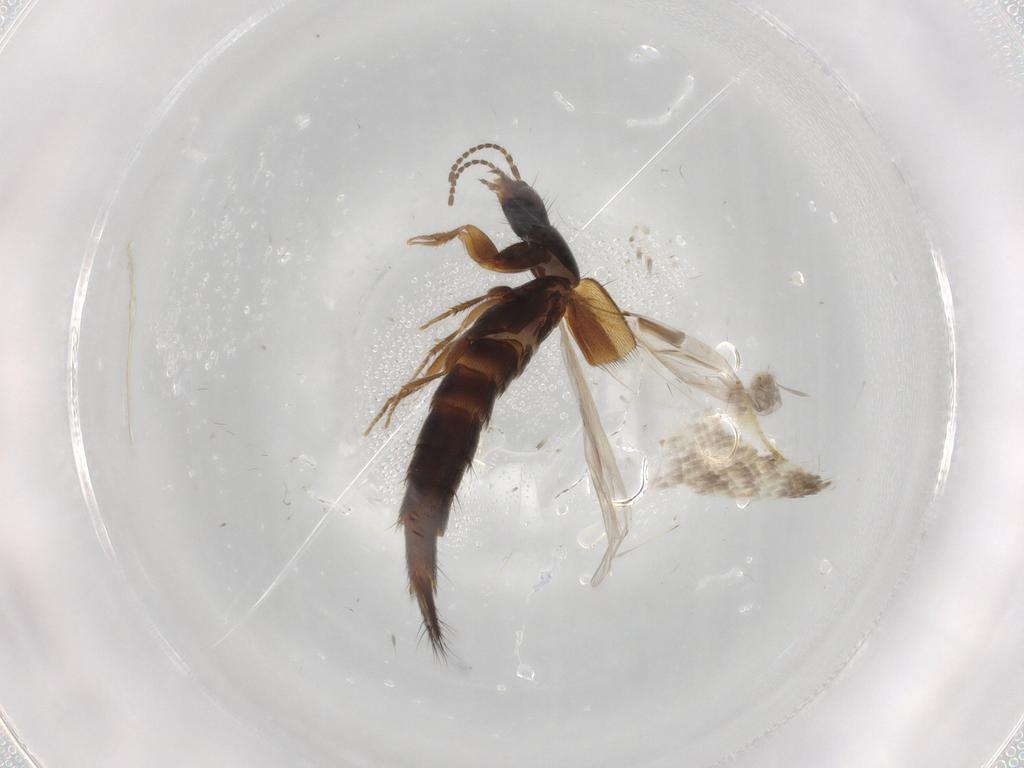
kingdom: Animalia
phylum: Arthropoda
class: Insecta
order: Coleoptera
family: Staphylinidae
